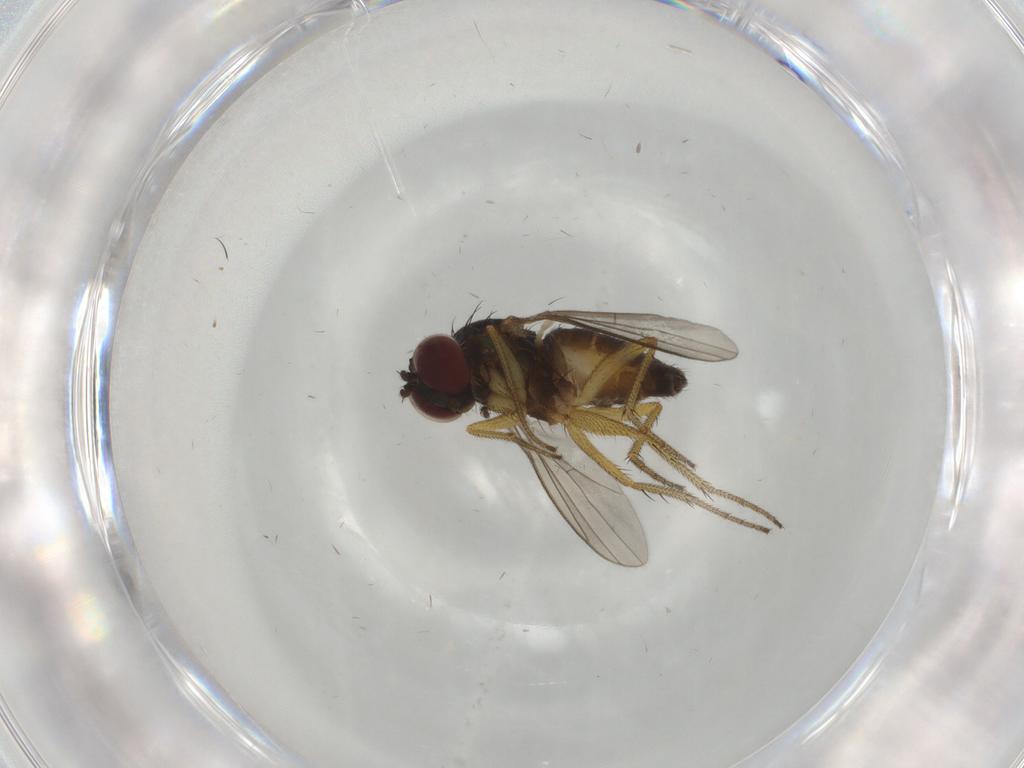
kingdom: Animalia
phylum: Arthropoda
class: Insecta
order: Diptera
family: Ceratopogonidae
